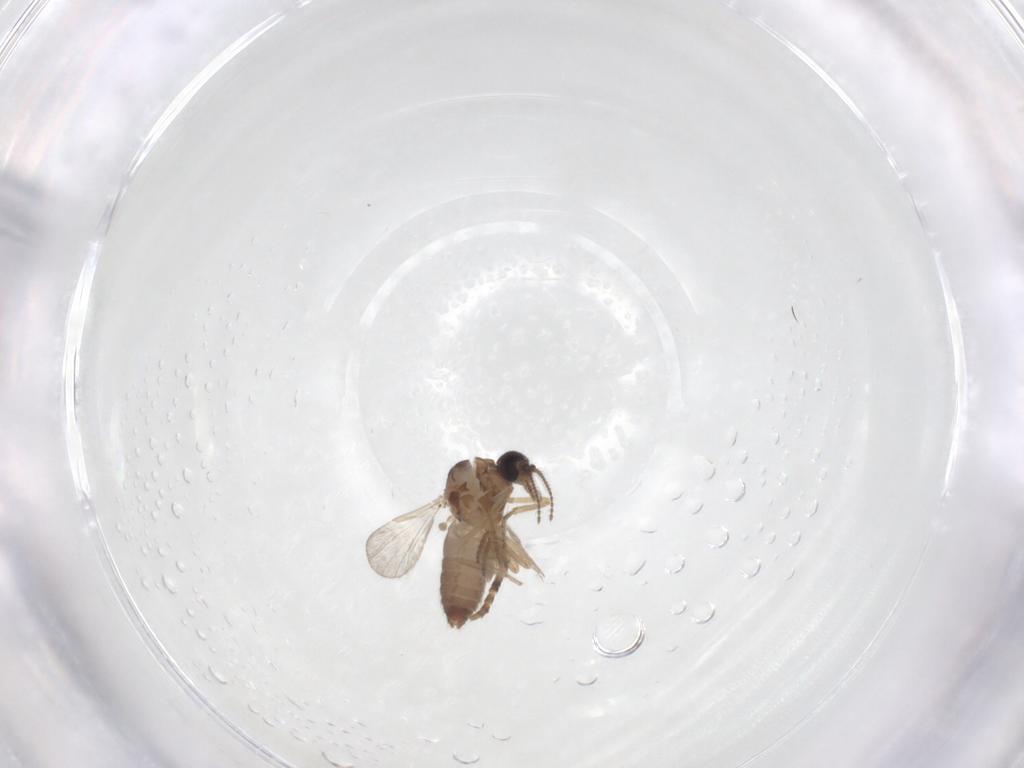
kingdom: Animalia
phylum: Arthropoda
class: Insecta
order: Diptera
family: Ceratopogonidae
